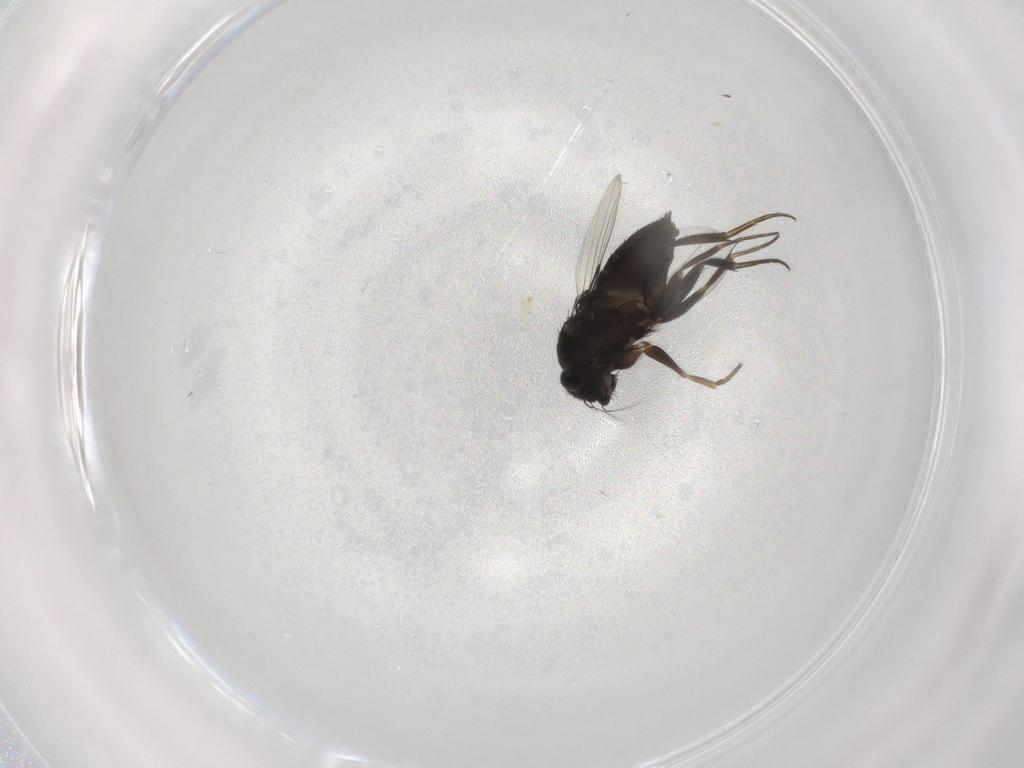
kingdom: Animalia
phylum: Arthropoda
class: Insecta
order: Diptera
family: Phoridae
